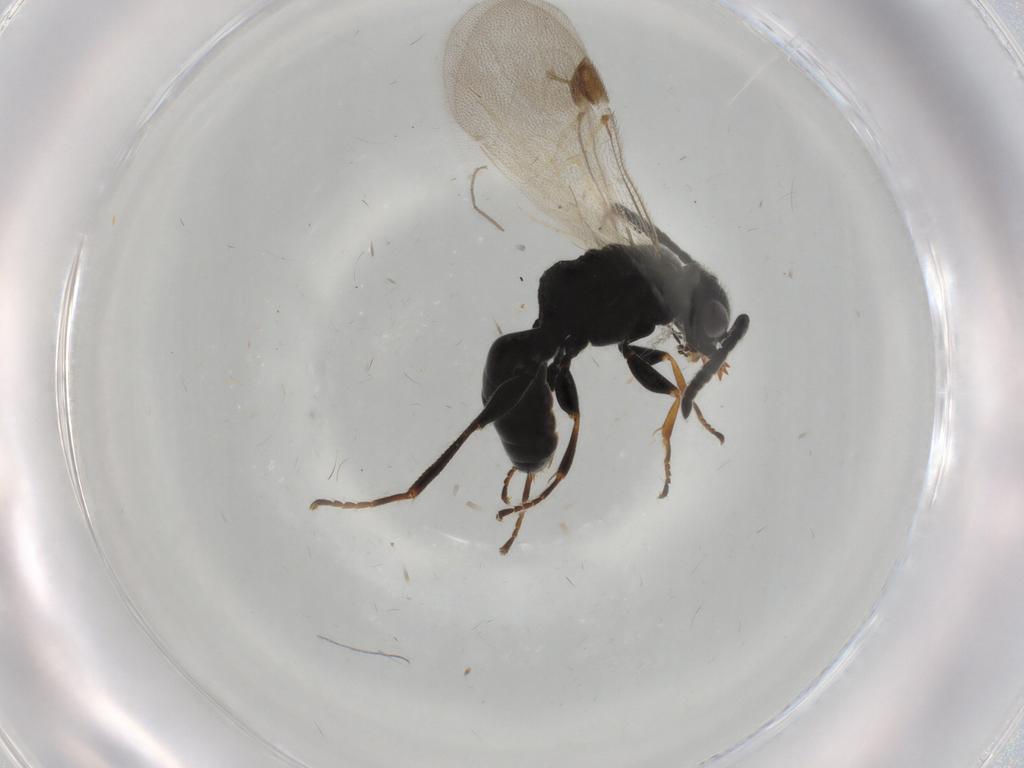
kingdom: Animalia
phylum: Arthropoda
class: Insecta
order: Hymenoptera
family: Dryinidae
